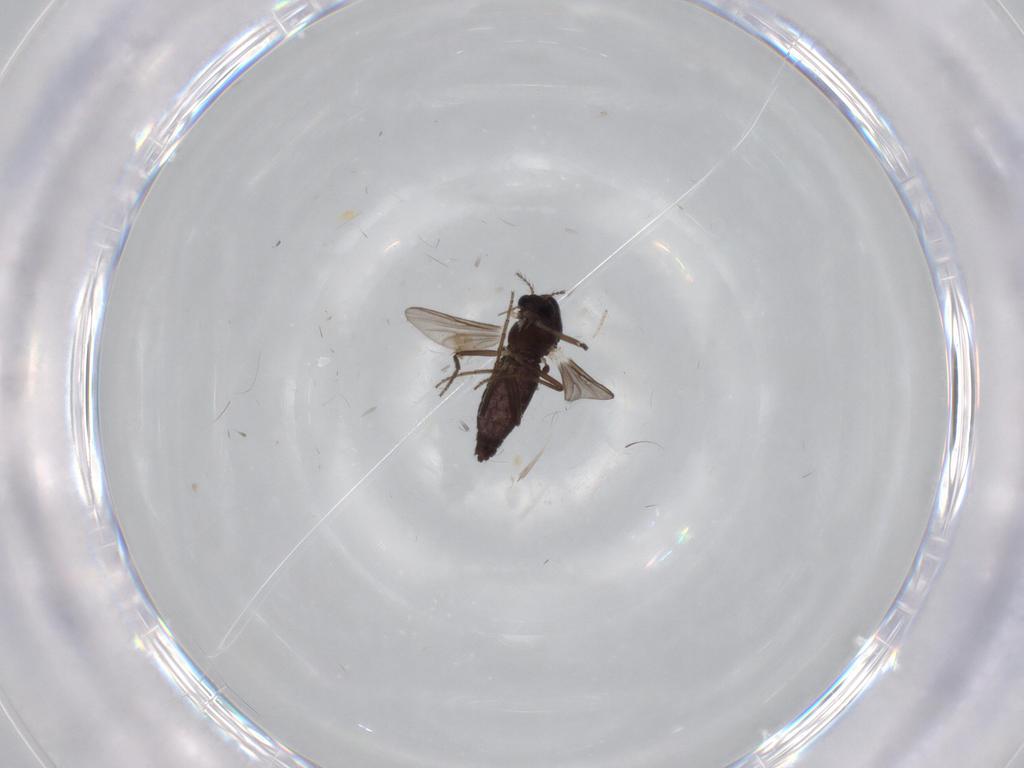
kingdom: Animalia
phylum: Arthropoda
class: Insecta
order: Diptera
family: Chironomidae
